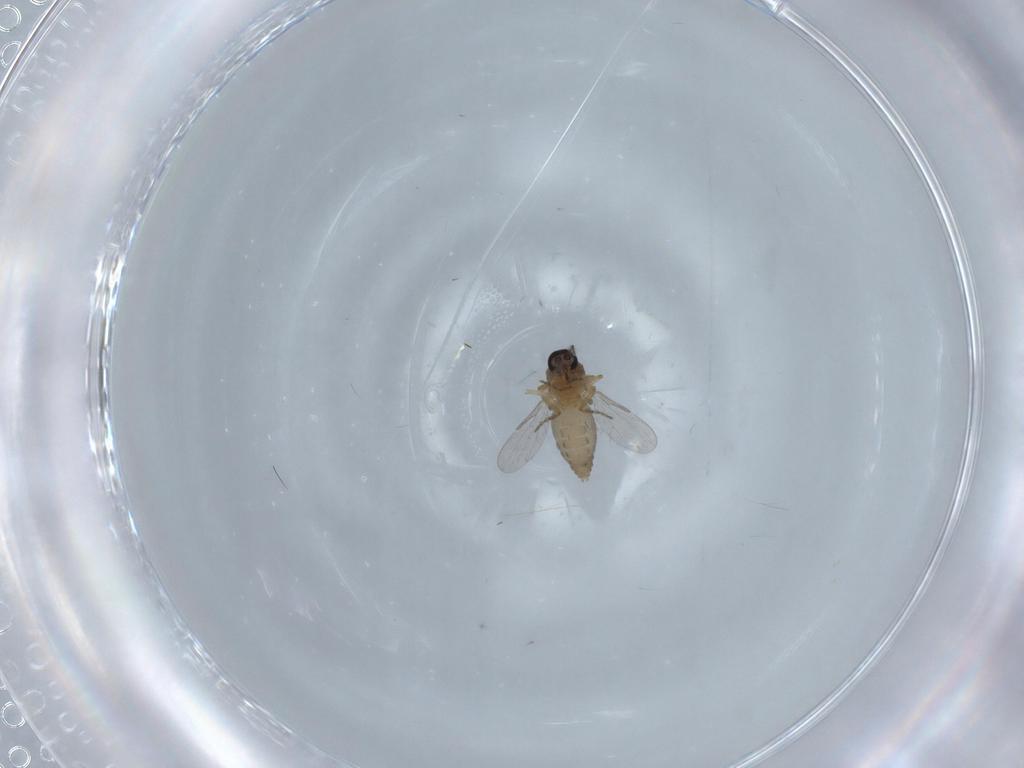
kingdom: Animalia
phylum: Arthropoda
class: Insecta
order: Diptera
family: Ceratopogonidae
